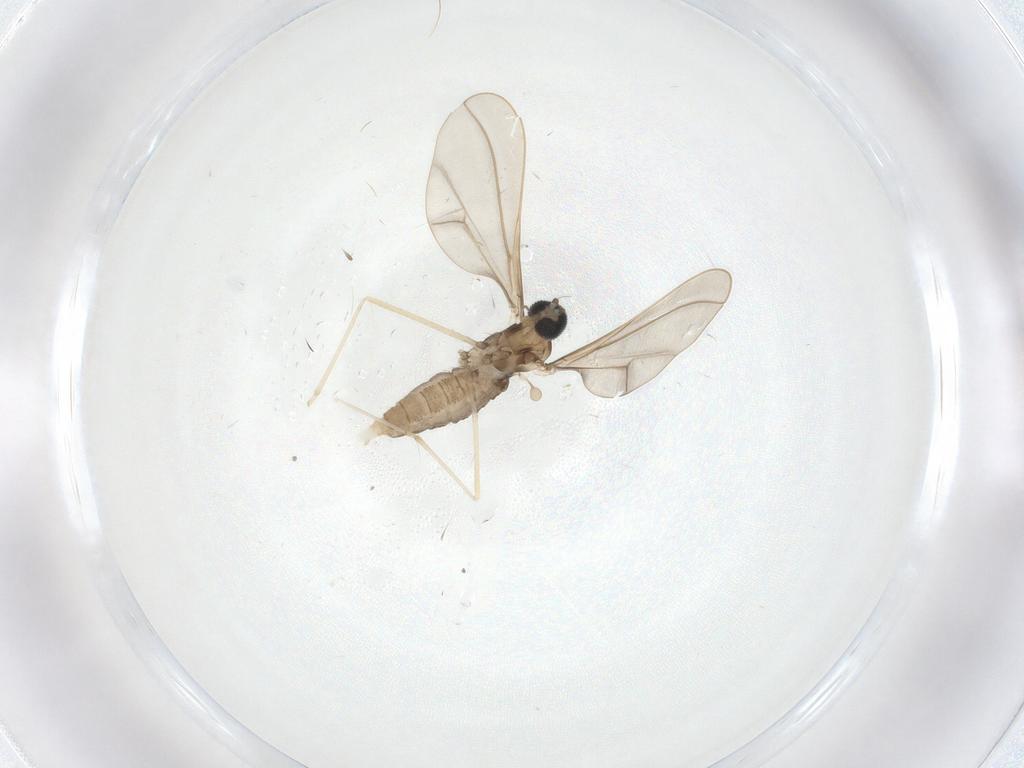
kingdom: Animalia
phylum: Arthropoda
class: Insecta
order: Diptera
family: Cecidomyiidae
